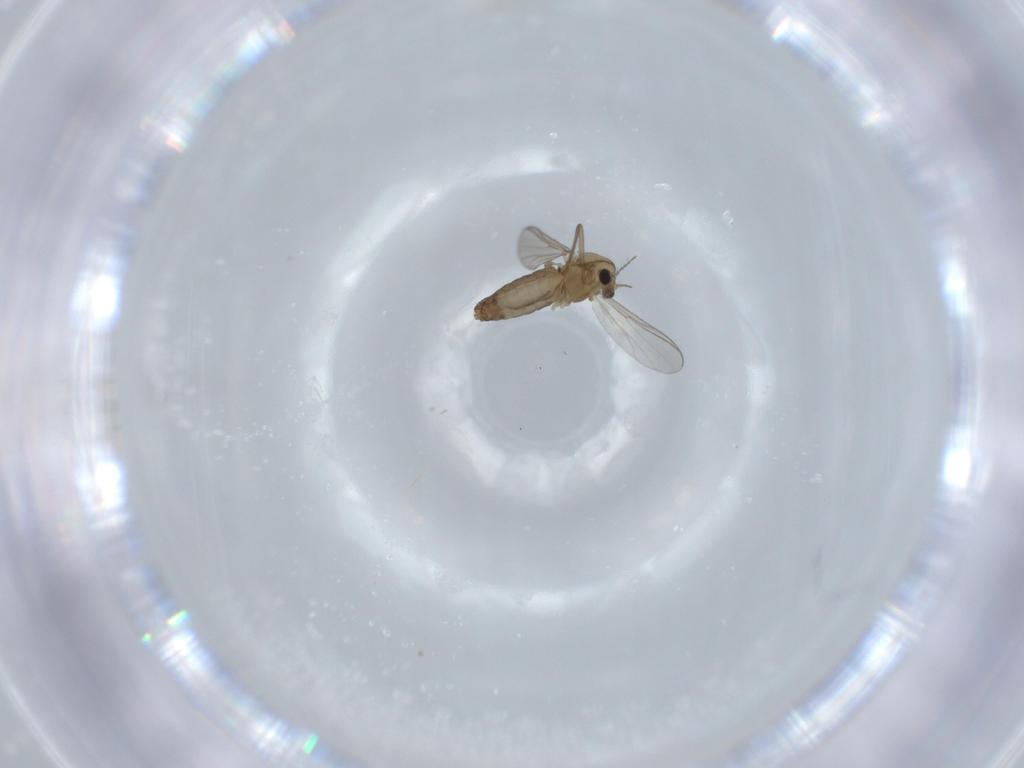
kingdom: Animalia
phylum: Arthropoda
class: Insecta
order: Diptera
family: Chironomidae
